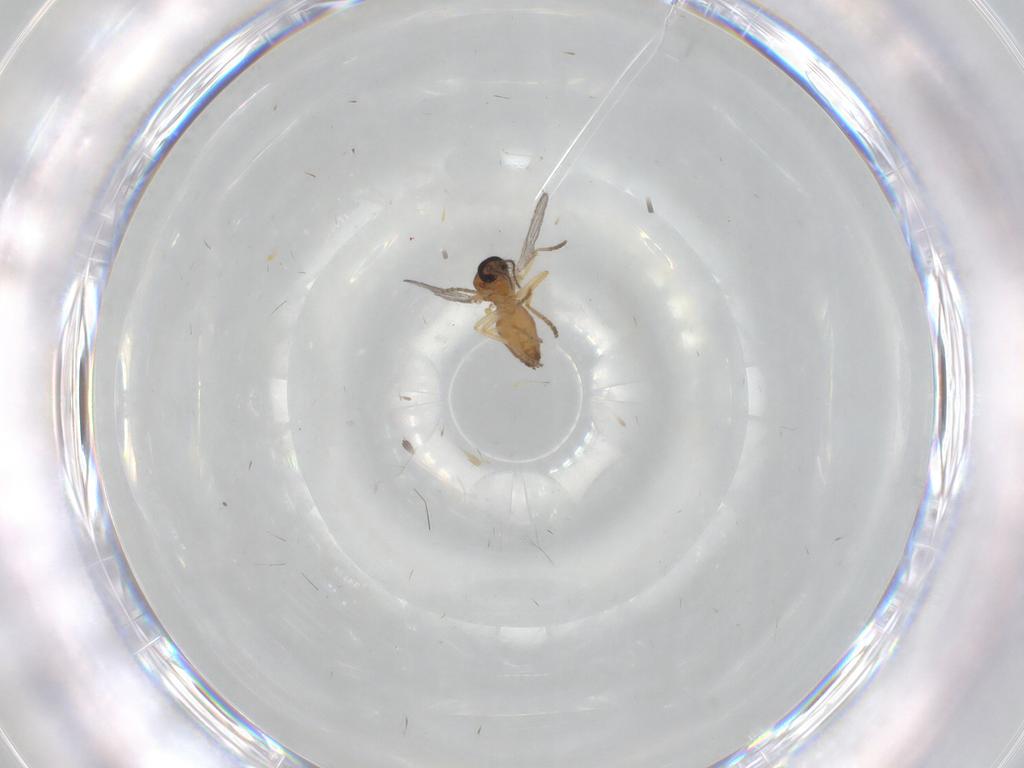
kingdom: Animalia
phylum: Arthropoda
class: Insecta
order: Diptera
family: Ceratopogonidae
